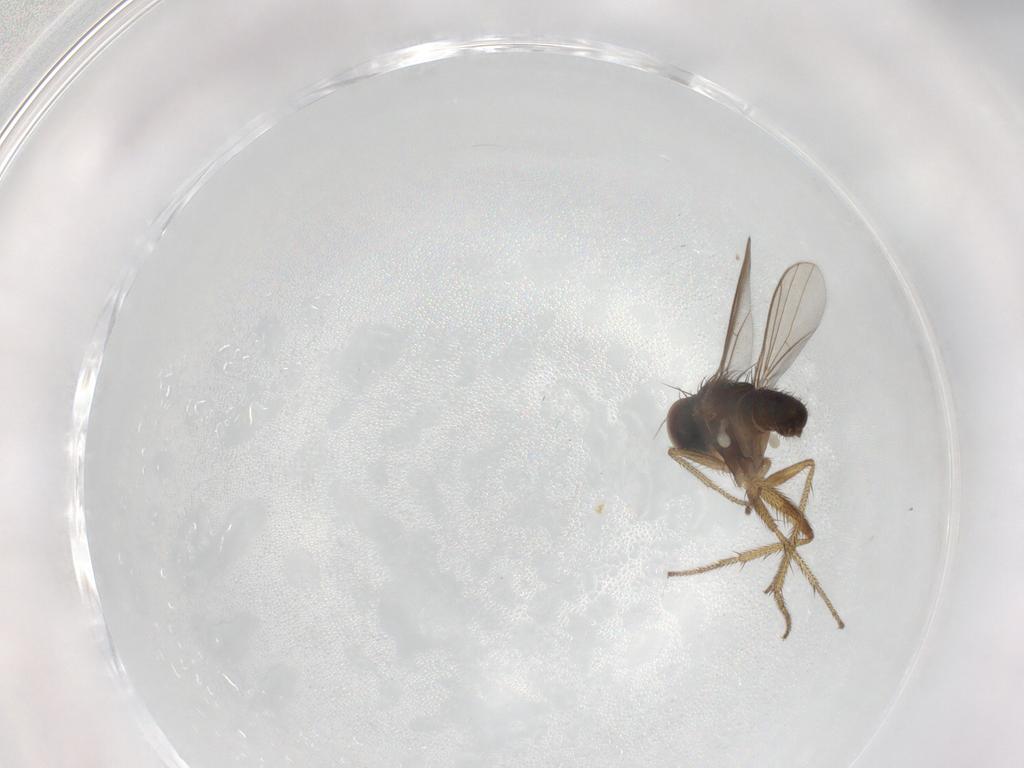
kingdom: Animalia
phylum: Arthropoda
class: Insecta
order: Diptera
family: Dolichopodidae
